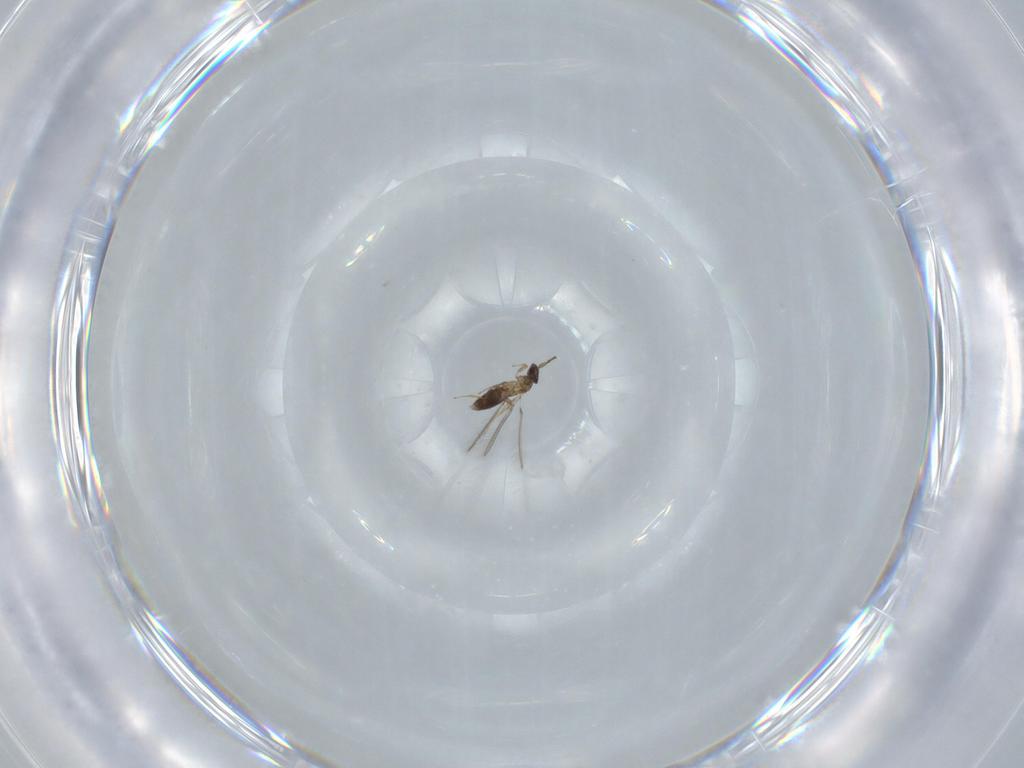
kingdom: Animalia
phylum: Arthropoda
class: Insecta
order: Hymenoptera
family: Mymaridae
